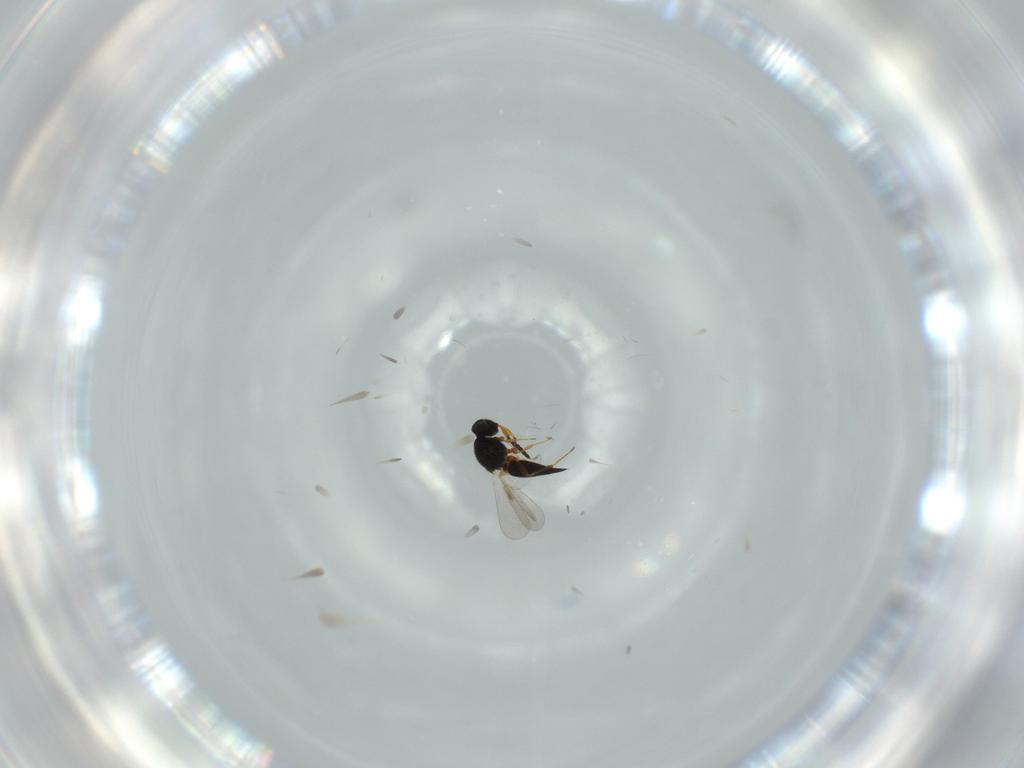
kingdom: Animalia
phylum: Arthropoda
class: Insecta
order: Hymenoptera
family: Platygastridae
